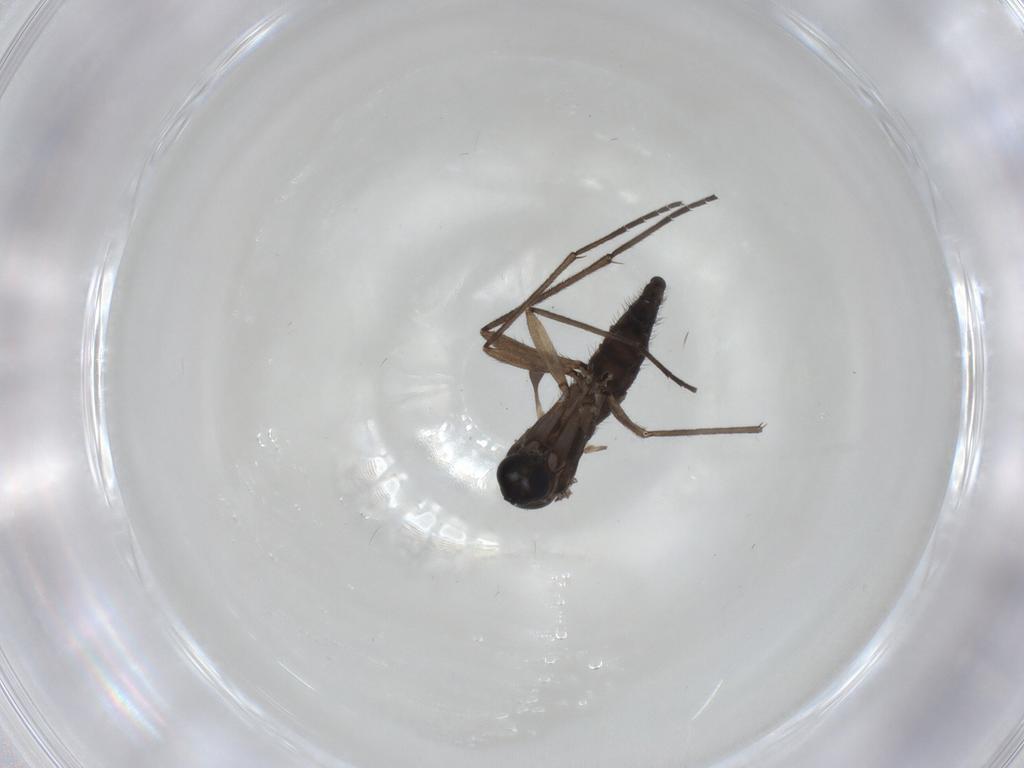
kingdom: Animalia
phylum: Arthropoda
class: Insecta
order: Diptera
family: Sciaridae
